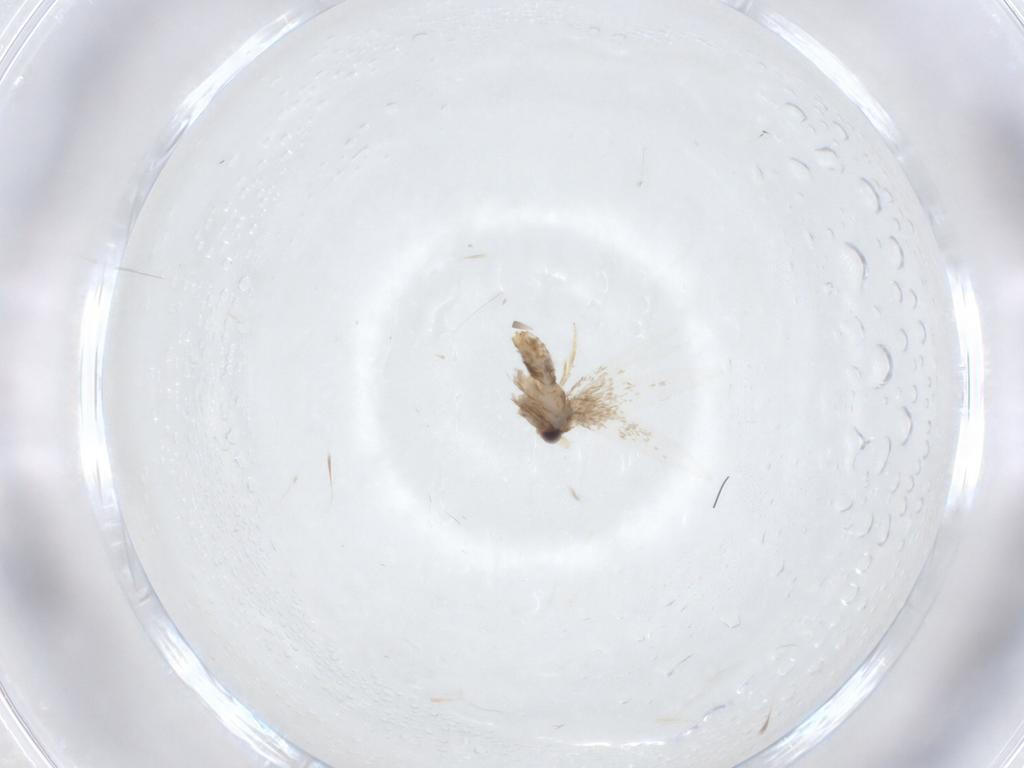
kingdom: Animalia
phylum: Arthropoda
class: Insecta
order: Lepidoptera
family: Nepticulidae
